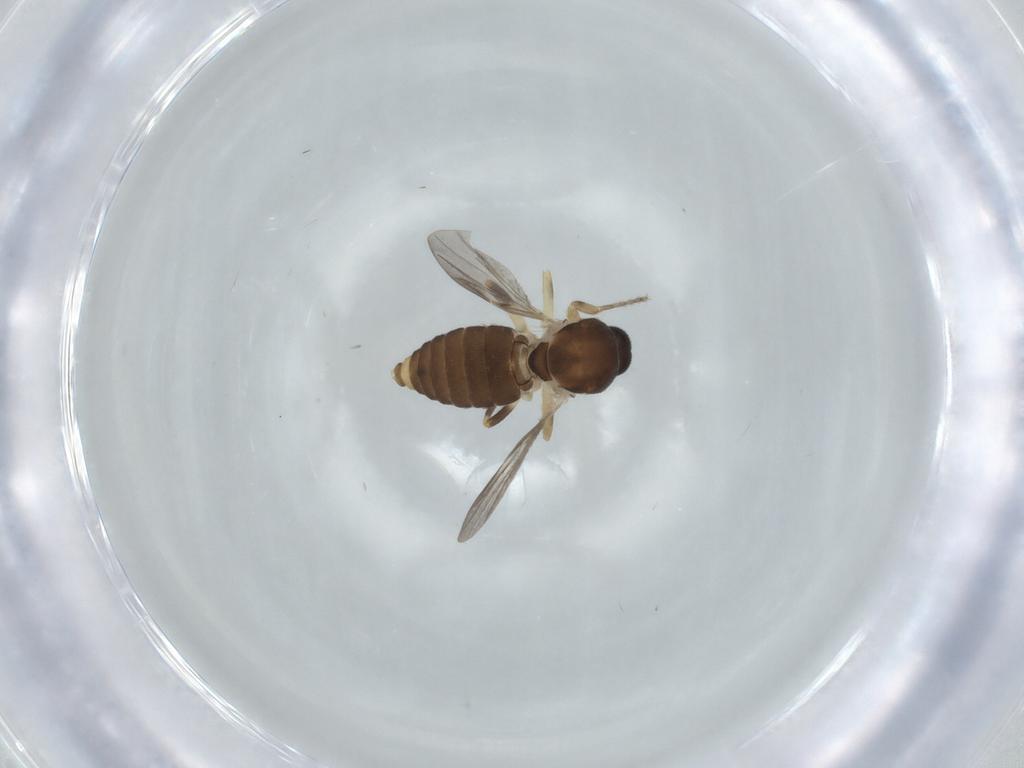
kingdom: Animalia
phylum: Arthropoda
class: Insecta
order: Diptera
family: Ceratopogonidae
